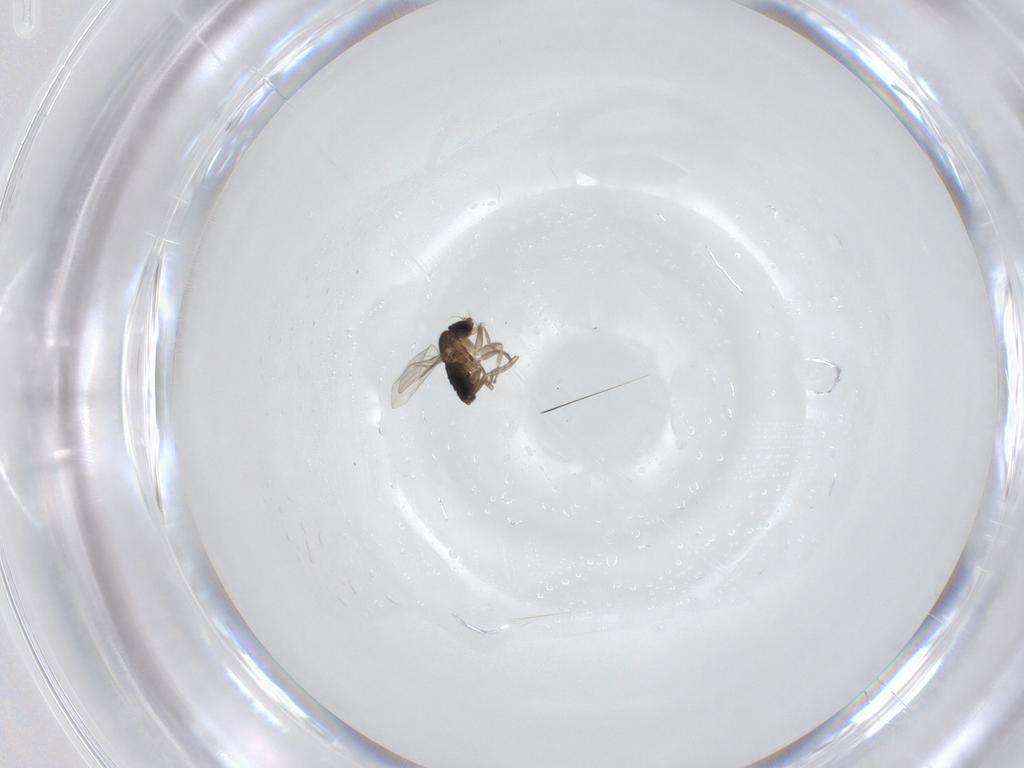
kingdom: Animalia
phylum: Arthropoda
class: Insecta
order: Diptera
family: Phoridae
